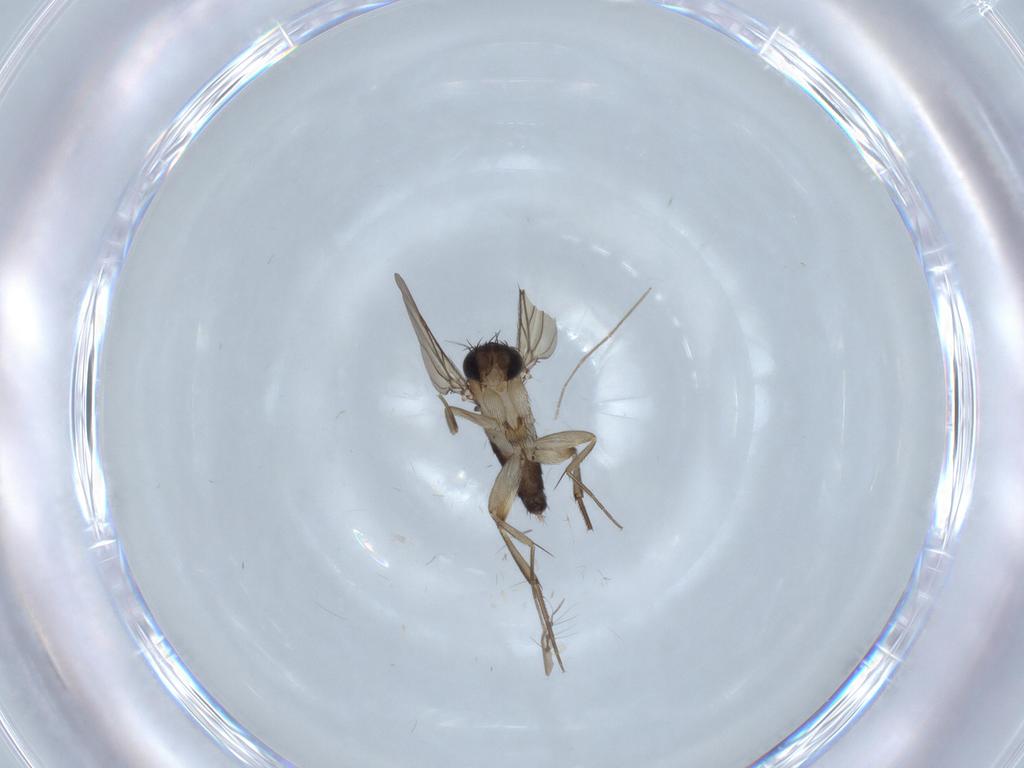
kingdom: Animalia
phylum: Arthropoda
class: Insecta
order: Diptera
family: Phoridae
